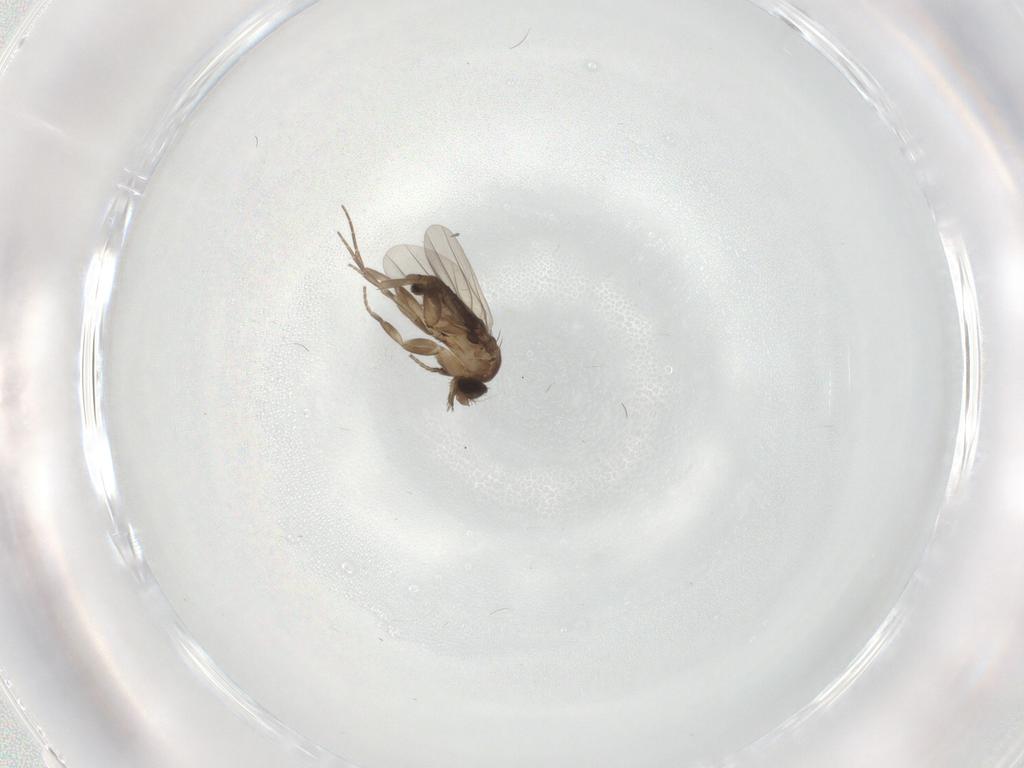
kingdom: Animalia
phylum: Arthropoda
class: Insecta
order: Diptera
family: Phoridae
